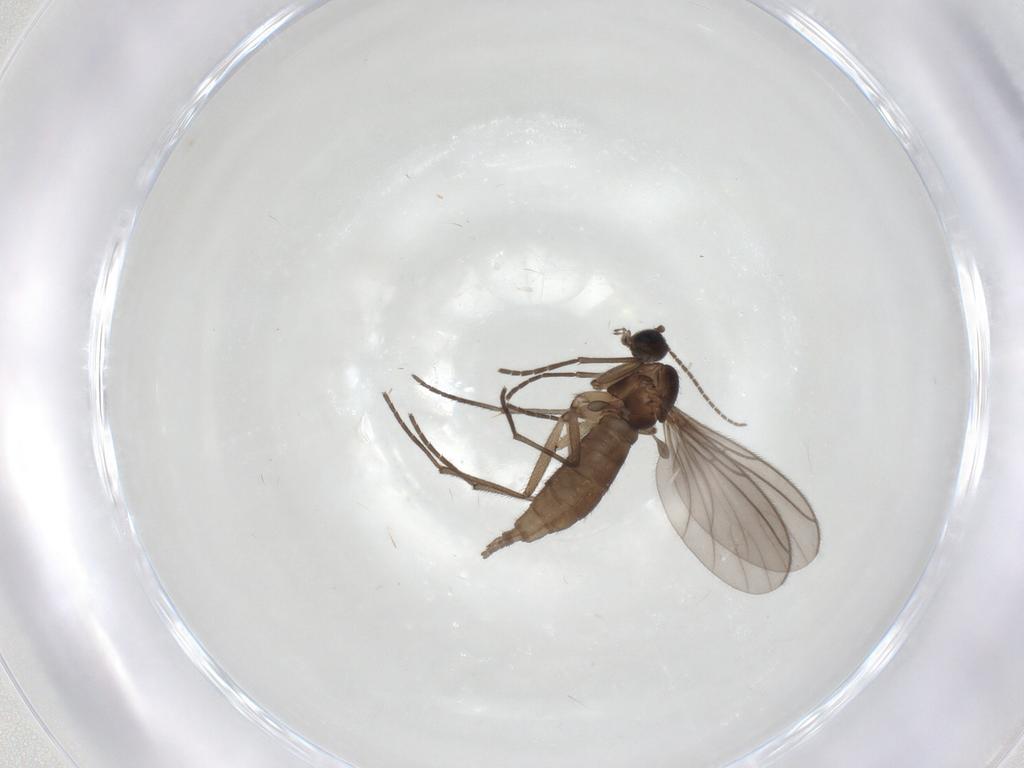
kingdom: Animalia
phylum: Arthropoda
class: Insecta
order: Diptera
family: Sciaridae
